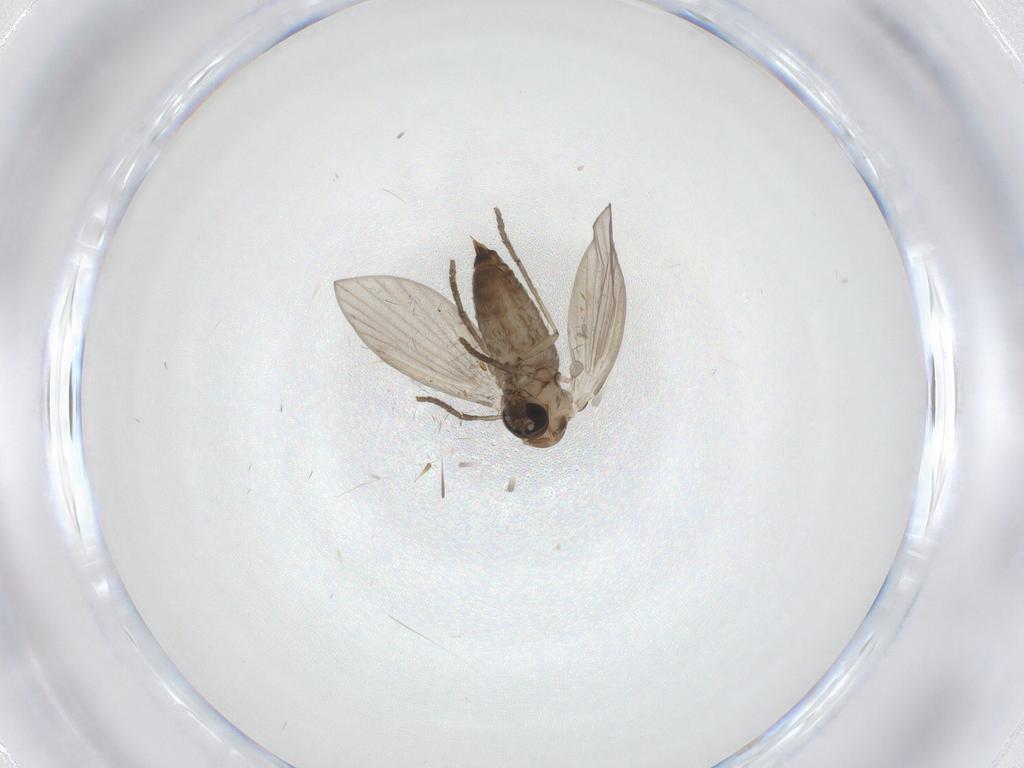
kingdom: Animalia
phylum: Arthropoda
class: Insecta
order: Diptera
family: Psychodidae
